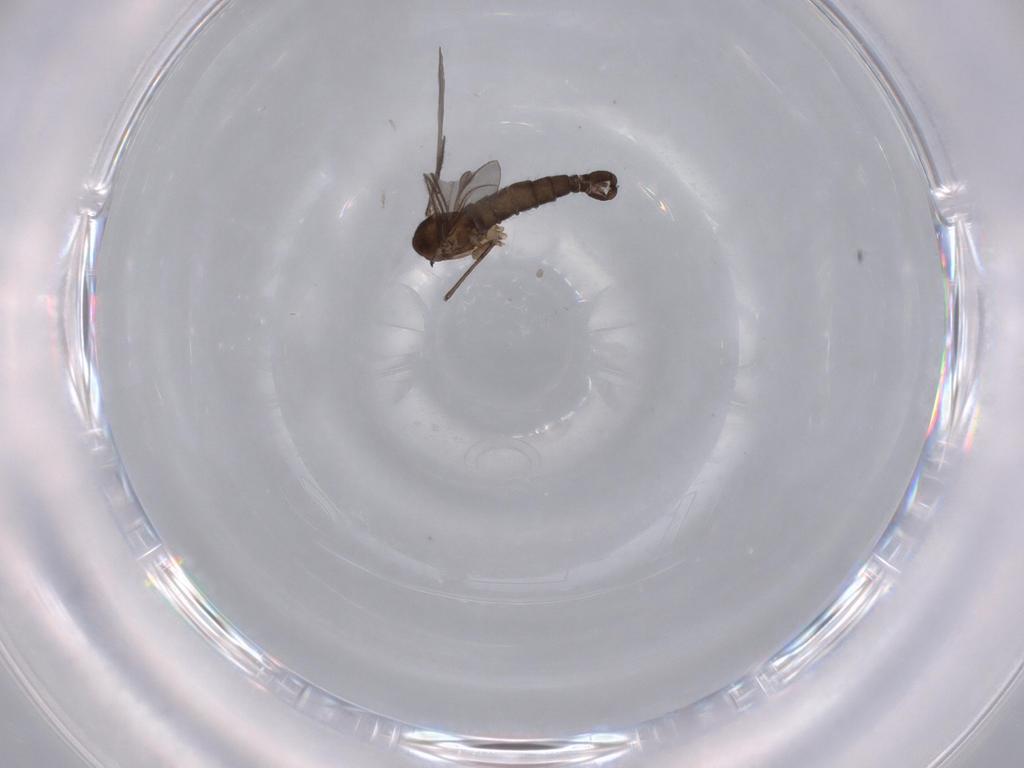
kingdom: Animalia
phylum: Arthropoda
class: Insecta
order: Diptera
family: Sciaridae
